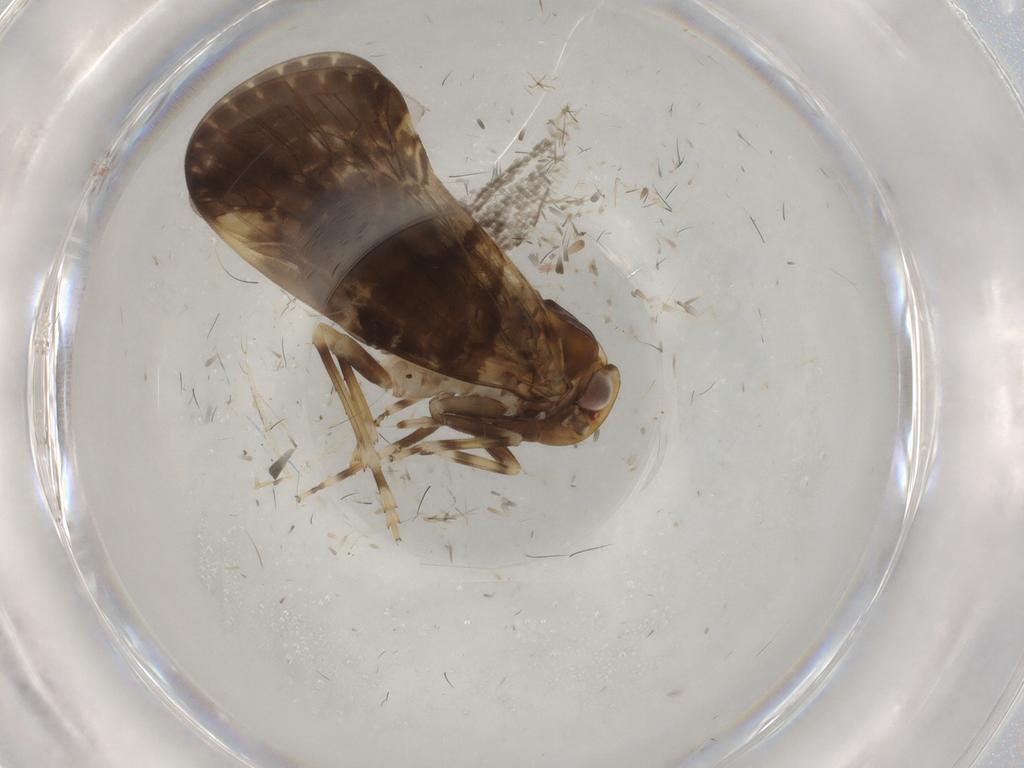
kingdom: Animalia
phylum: Arthropoda
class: Insecta
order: Hemiptera
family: Cixiidae
